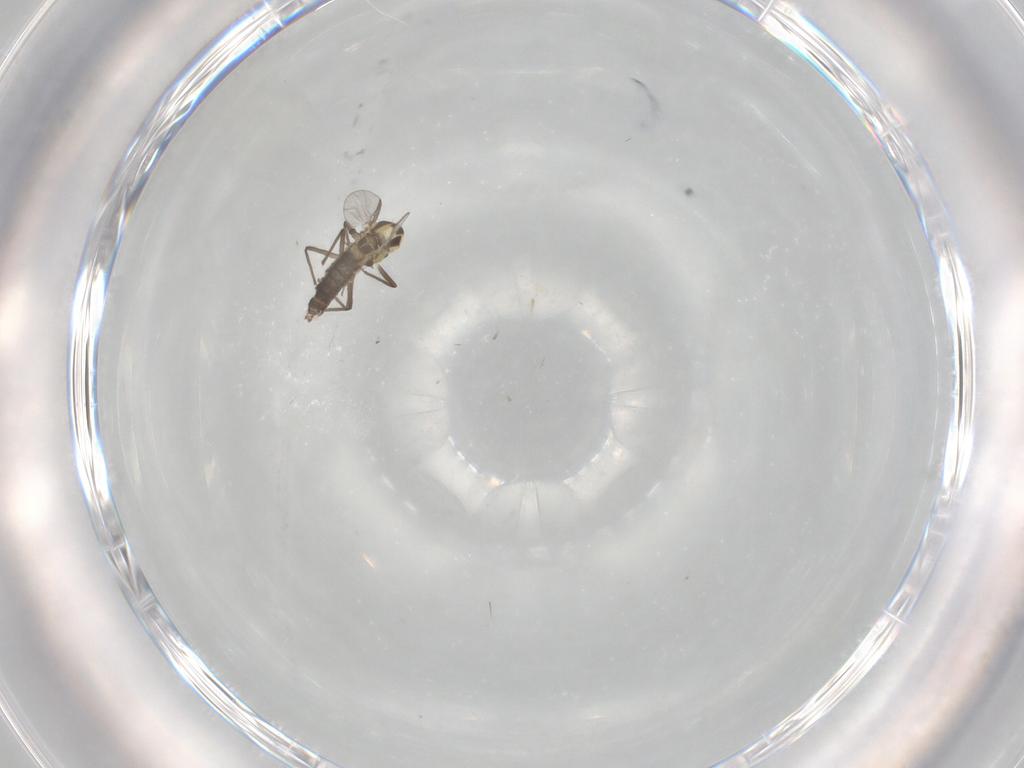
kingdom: Animalia
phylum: Arthropoda
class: Insecta
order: Diptera
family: Chironomidae
